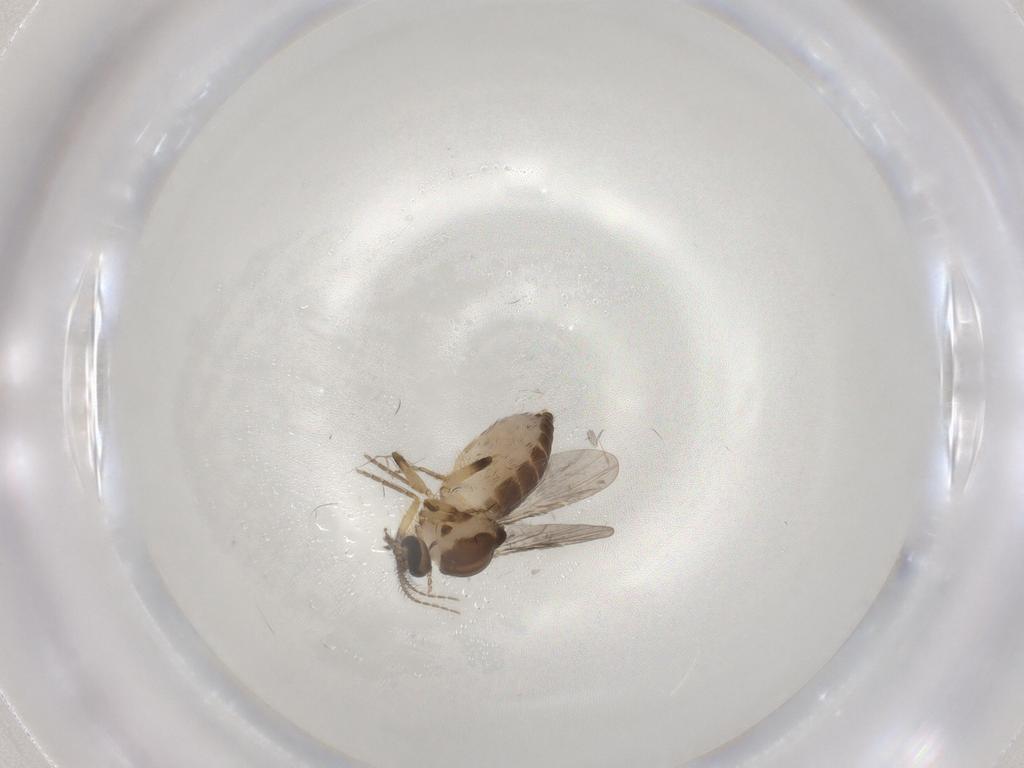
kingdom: Animalia
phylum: Arthropoda
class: Insecta
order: Diptera
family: Ceratopogonidae
